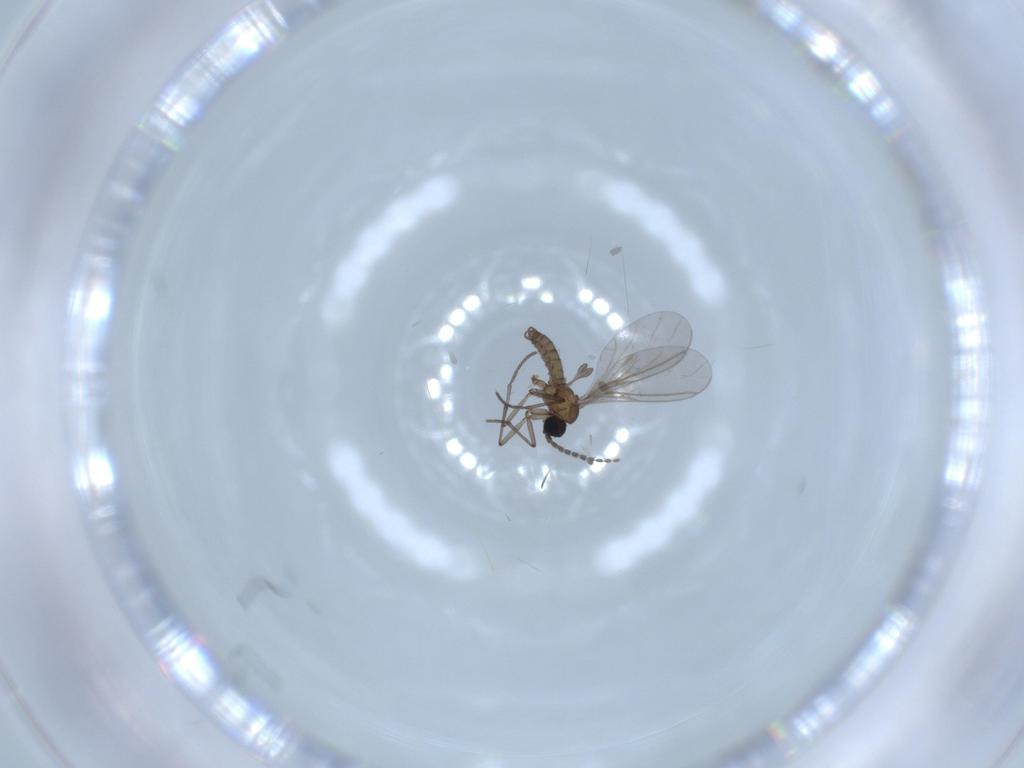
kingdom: Animalia
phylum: Arthropoda
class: Insecta
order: Diptera
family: Sciaridae
